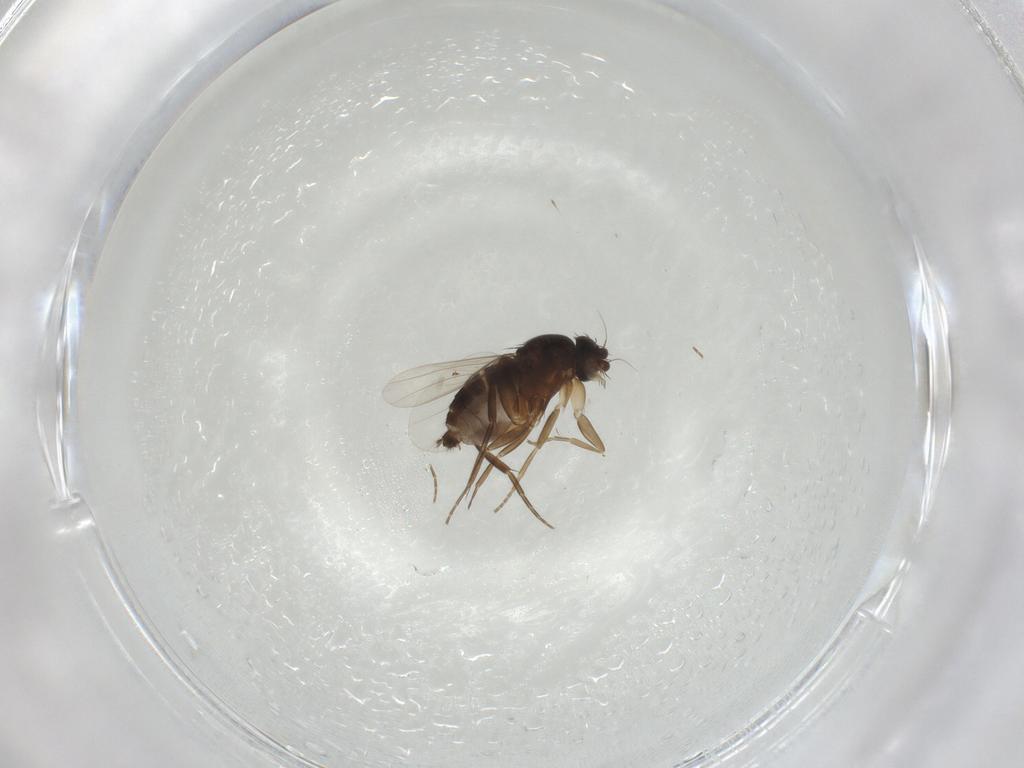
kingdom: Animalia
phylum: Arthropoda
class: Insecta
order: Diptera
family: Phoridae
